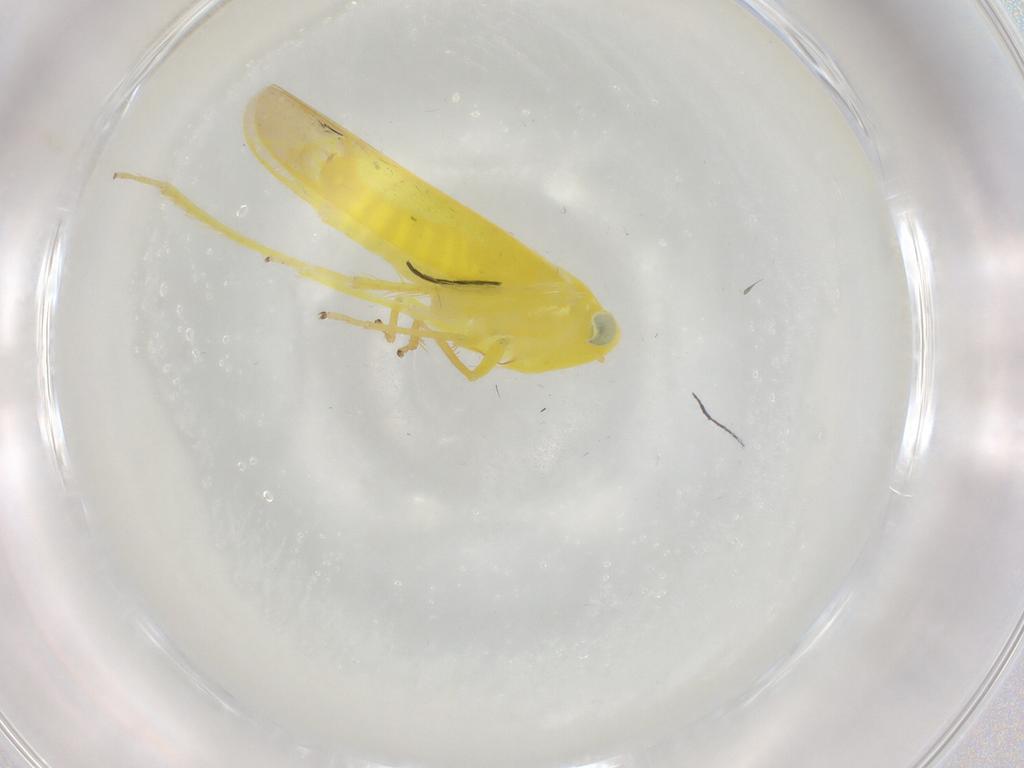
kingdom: Animalia
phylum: Arthropoda
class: Insecta
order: Hemiptera
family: Cicadellidae
